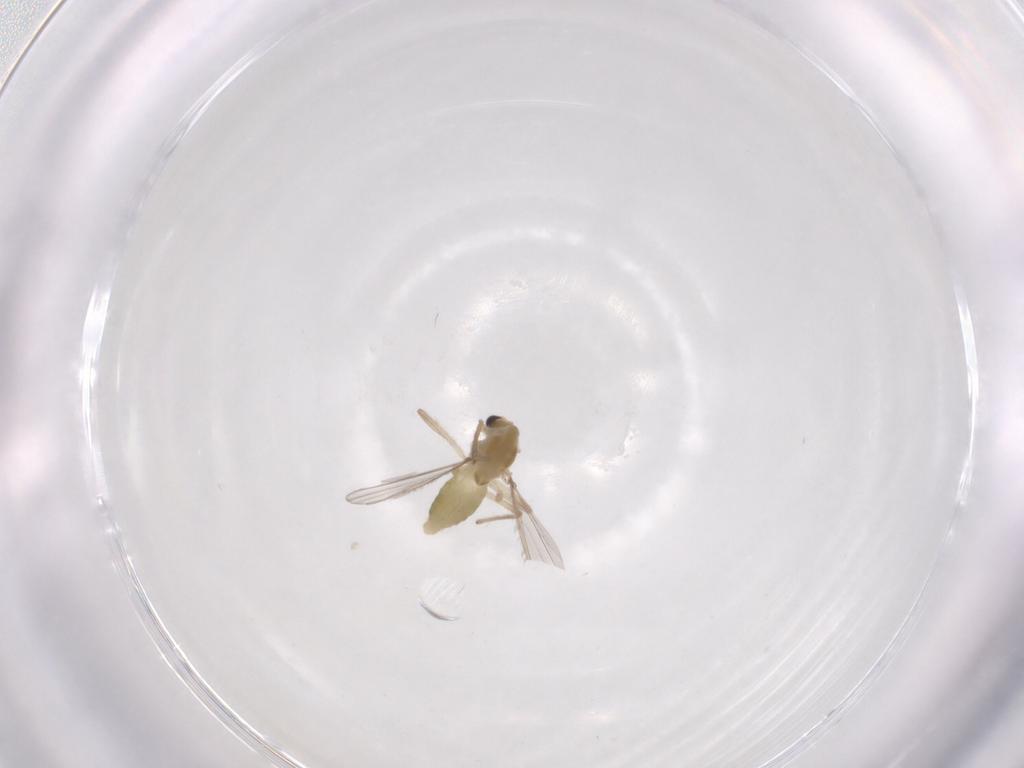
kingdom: Animalia
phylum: Arthropoda
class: Insecta
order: Diptera
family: Chironomidae
